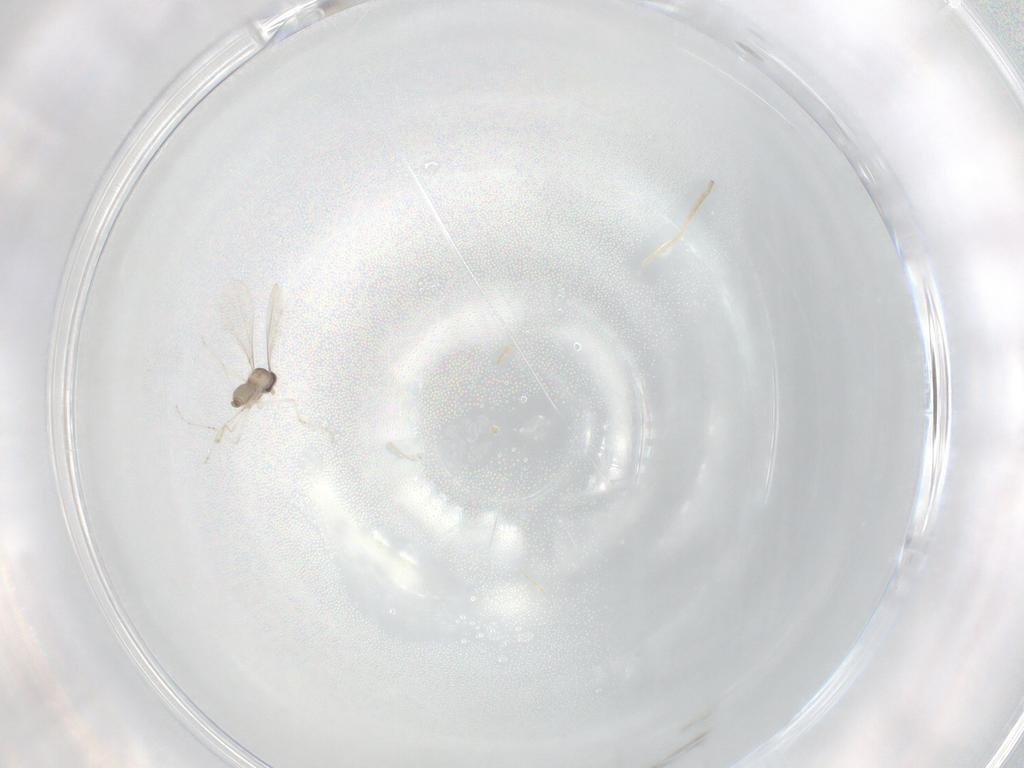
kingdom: Animalia
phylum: Arthropoda
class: Insecta
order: Diptera
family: Cecidomyiidae
